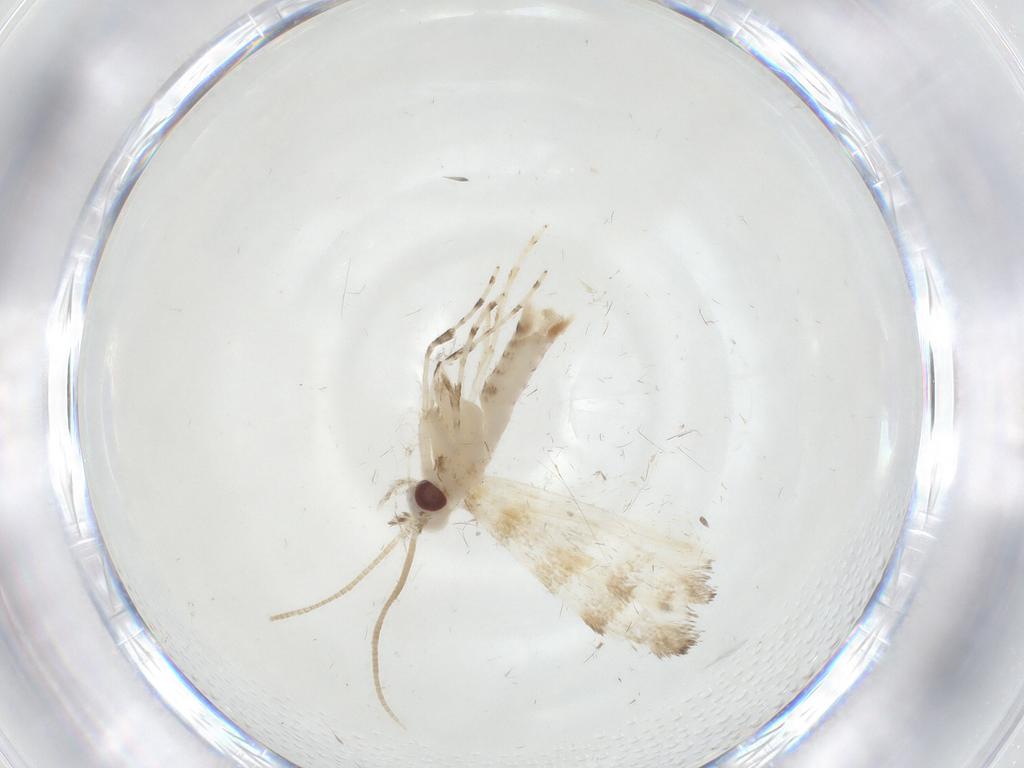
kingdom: Animalia
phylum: Arthropoda
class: Insecta
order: Lepidoptera
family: Gracillariidae
